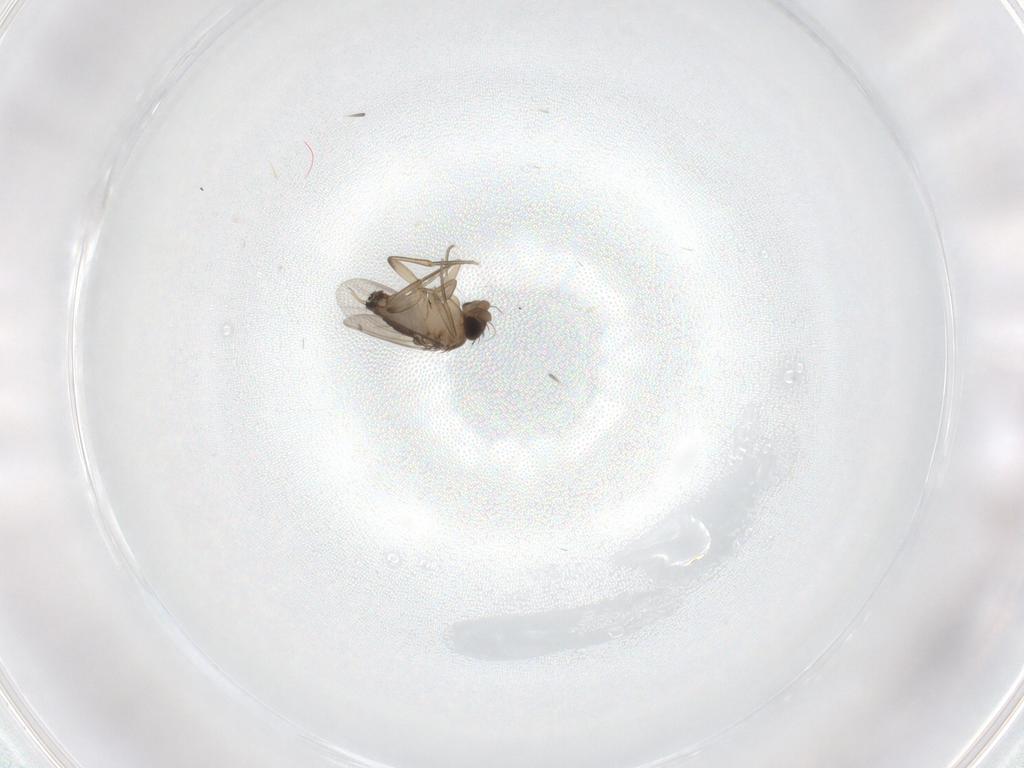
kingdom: Animalia
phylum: Arthropoda
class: Insecta
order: Diptera
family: Phoridae
